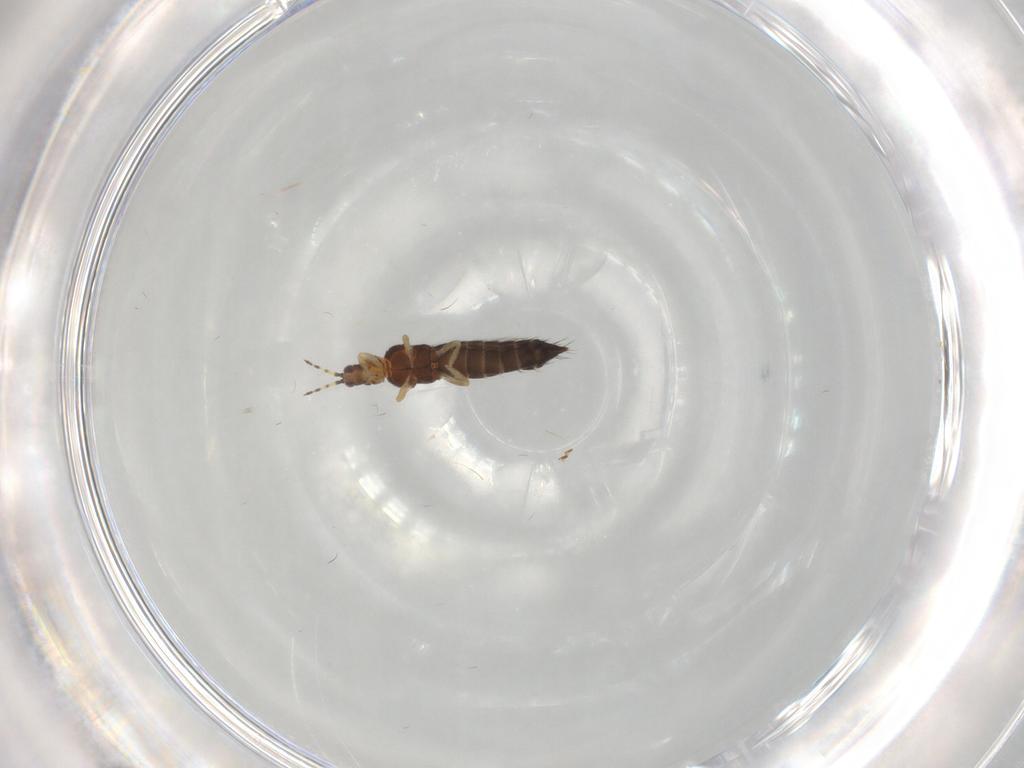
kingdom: Animalia
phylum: Arthropoda
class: Insecta
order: Thysanoptera
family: Thripidae
